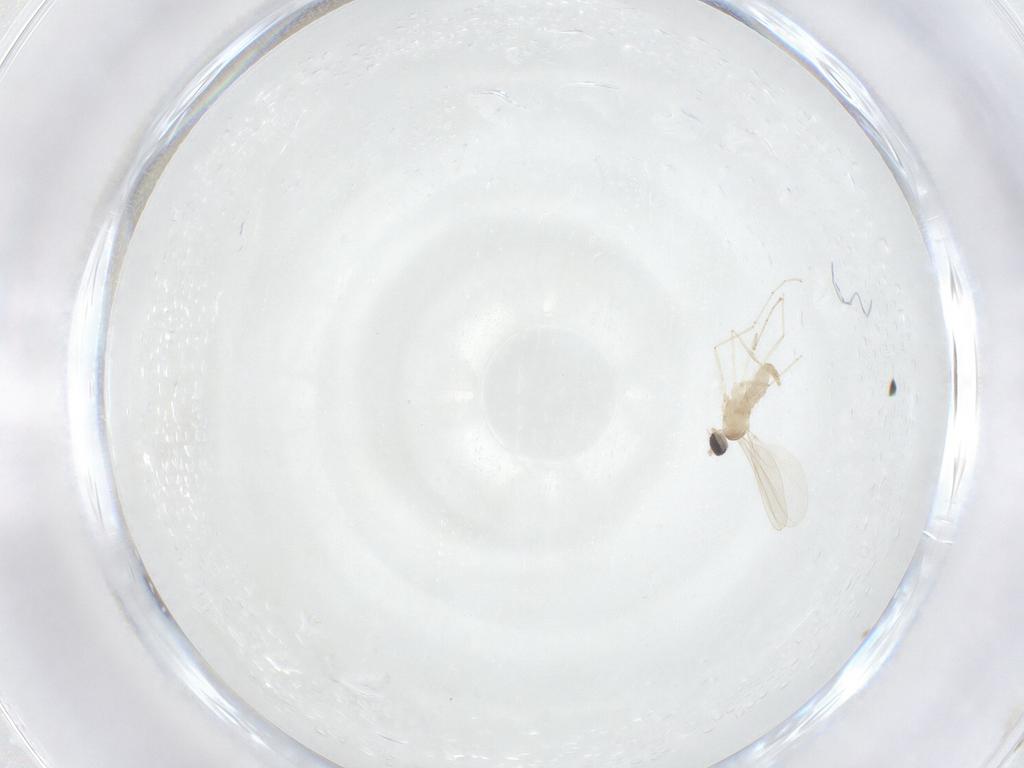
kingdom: Animalia
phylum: Arthropoda
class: Insecta
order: Diptera
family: Cecidomyiidae
